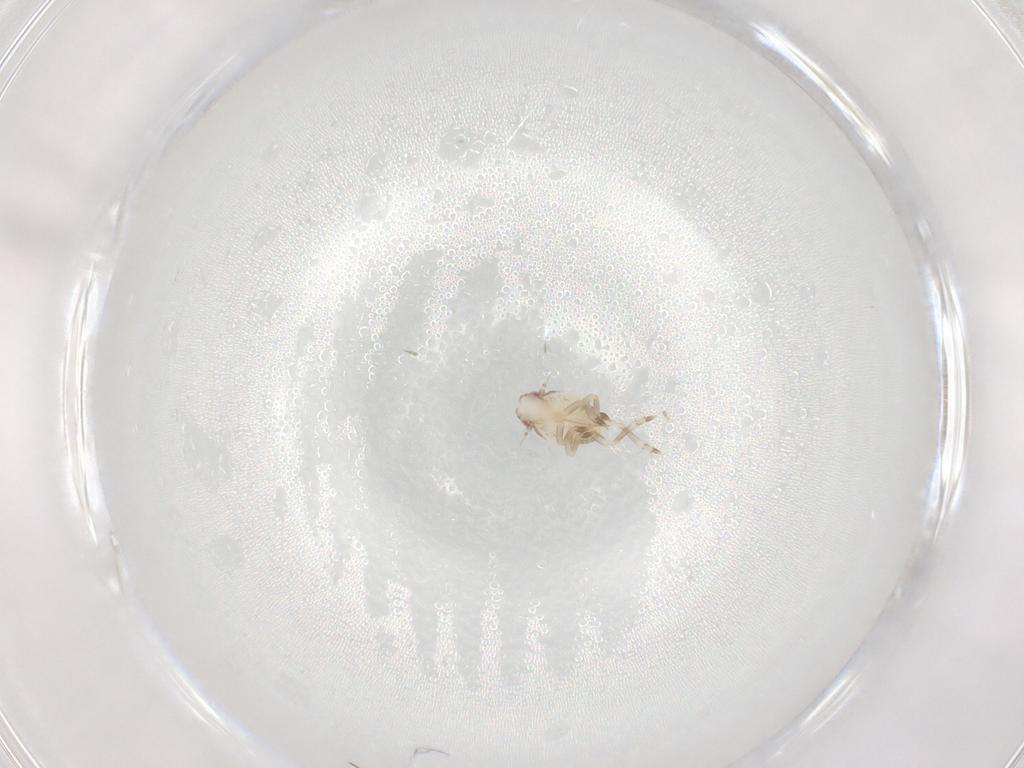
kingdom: Animalia
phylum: Arthropoda
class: Insecta
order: Hemiptera
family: Flatidae
